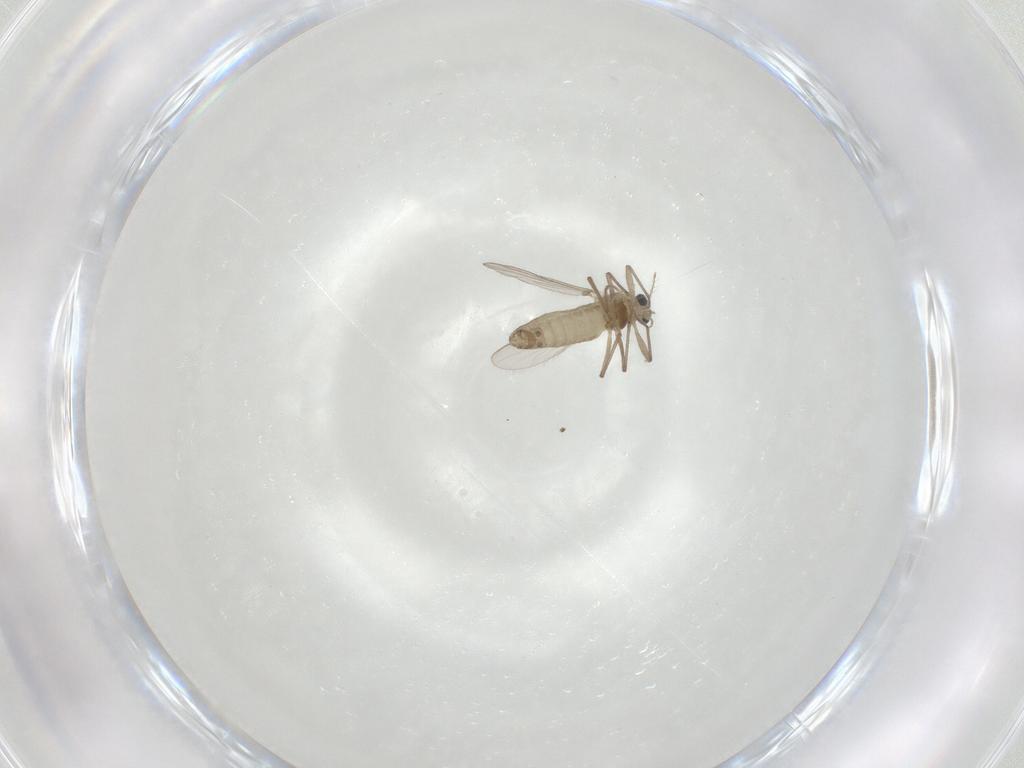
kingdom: Animalia
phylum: Arthropoda
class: Insecta
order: Diptera
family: Chironomidae
